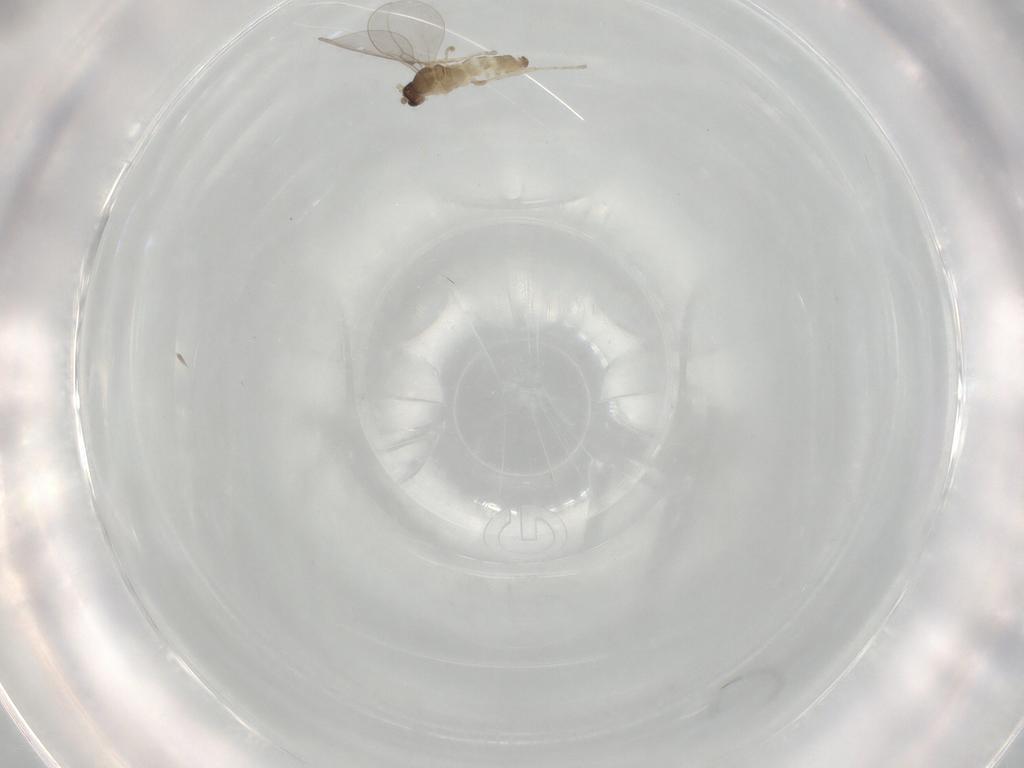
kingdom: Animalia
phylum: Arthropoda
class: Insecta
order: Diptera
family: Cecidomyiidae
